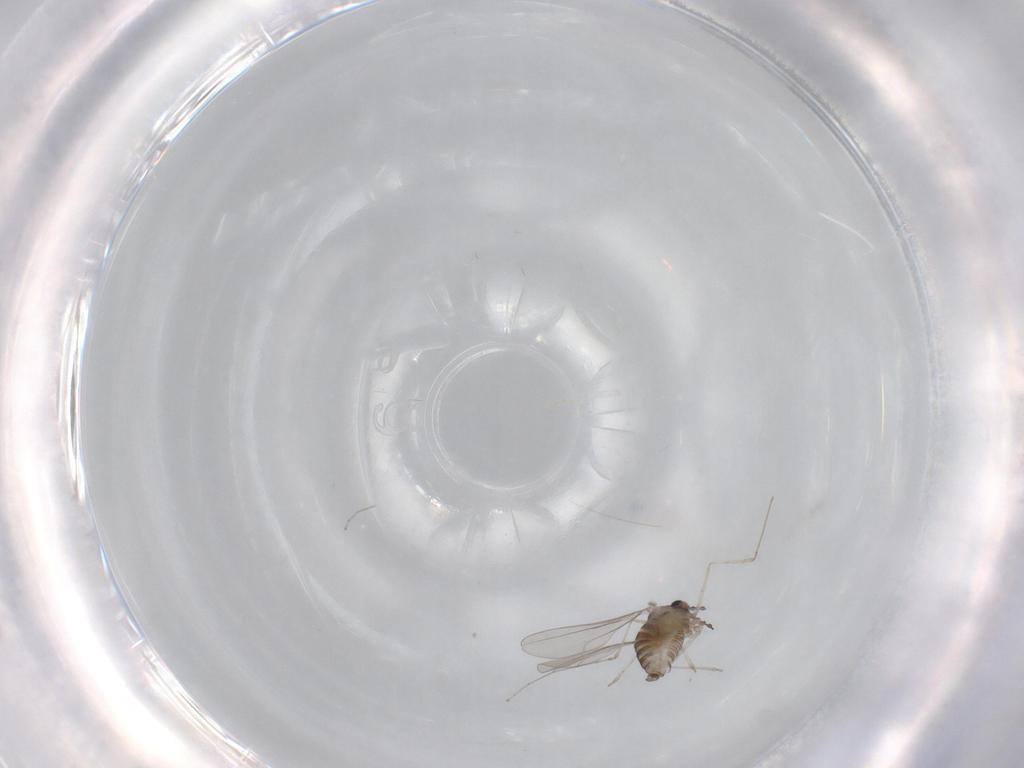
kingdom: Animalia
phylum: Arthropoda
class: Insecta
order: Diptera
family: Cecidomyiidae
